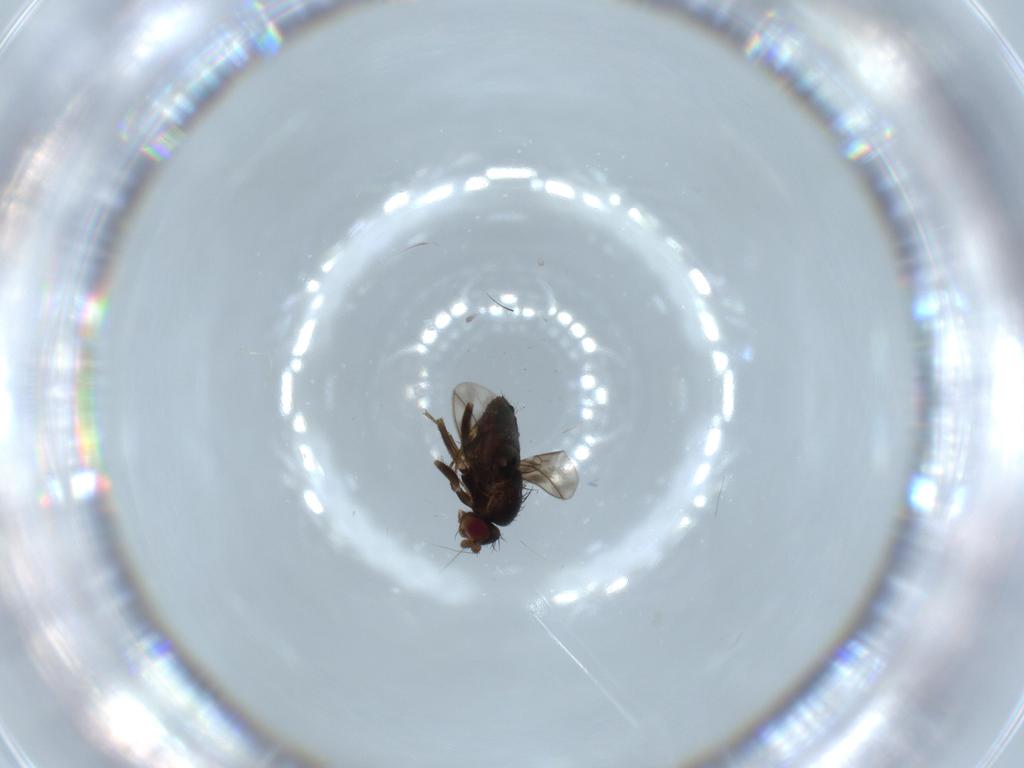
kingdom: Animalia
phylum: Arthropoda
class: Insecta
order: Diptera
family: Sphaeroceridae
